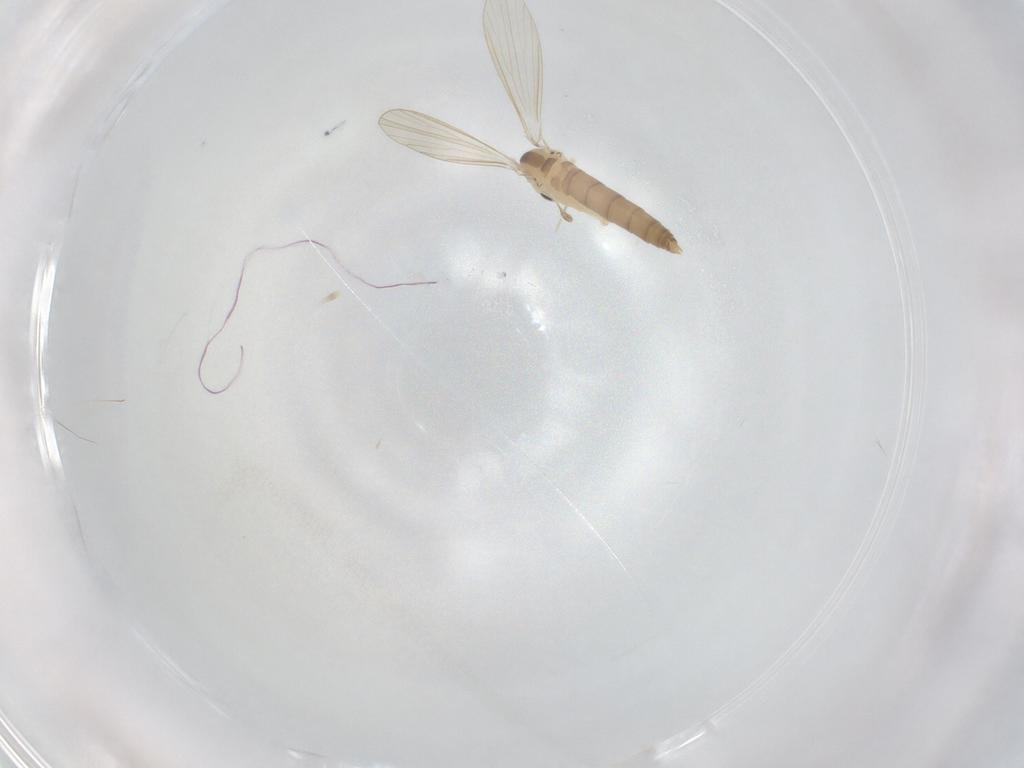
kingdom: Animalia
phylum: Arthropoda
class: Insecta
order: Diptera
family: Psychodidae
